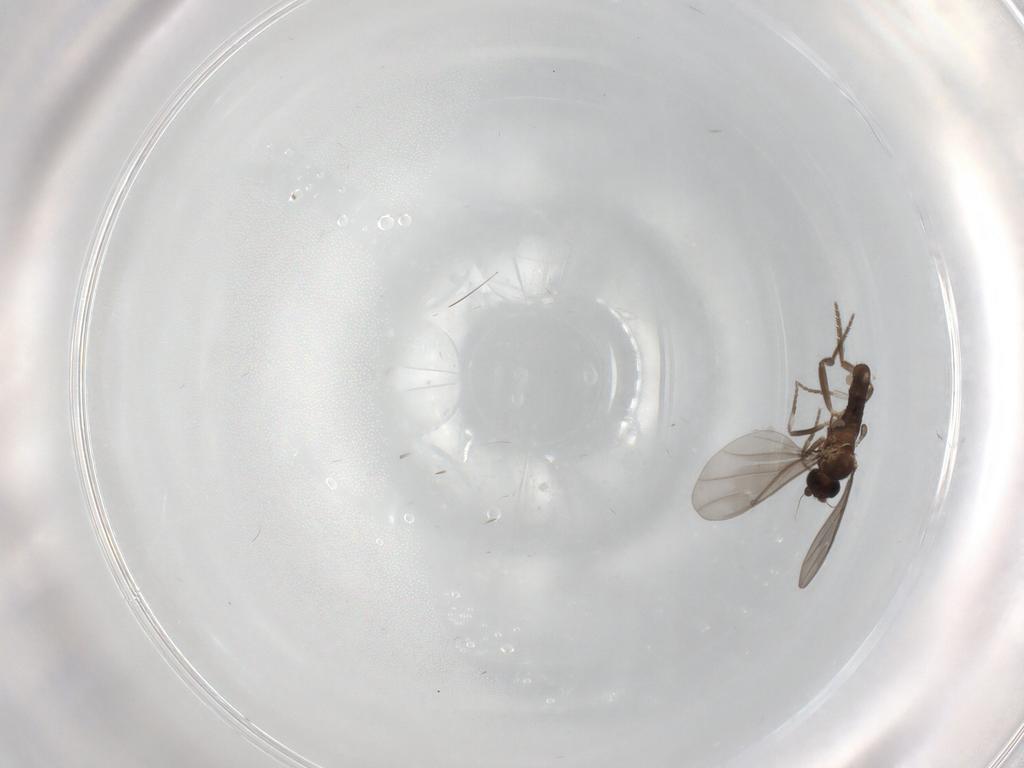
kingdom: Animalia
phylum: Arthropoda
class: Insecta
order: Diptera
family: Phoridae
